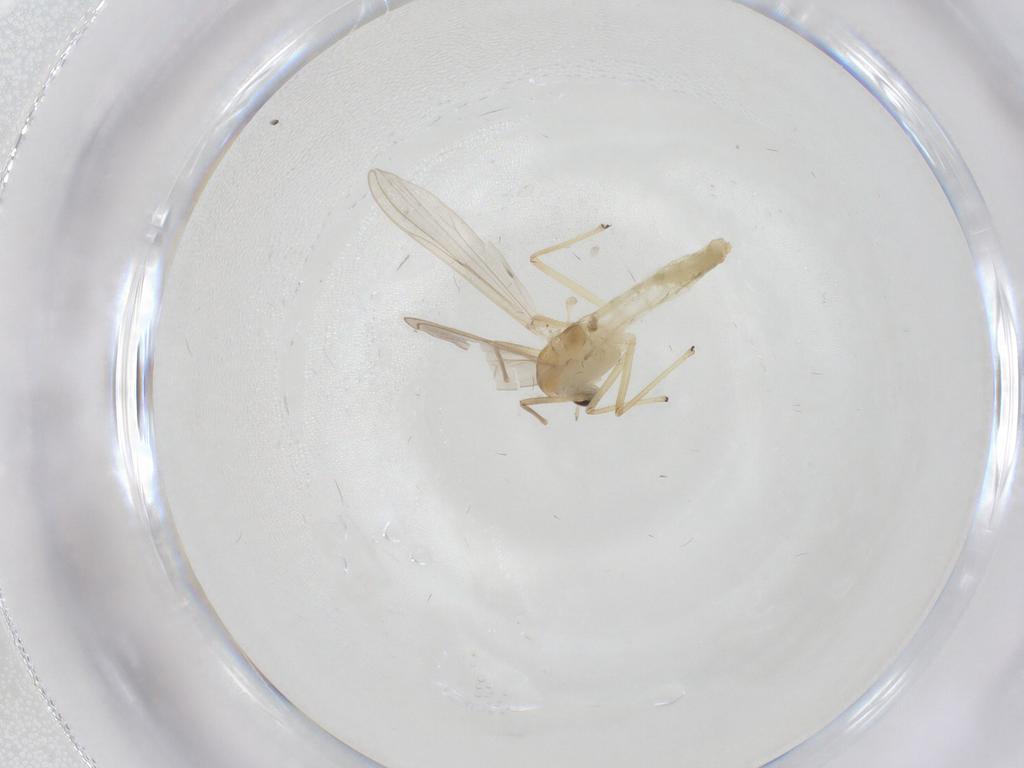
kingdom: Animalia
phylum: Arthropoda
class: Insecta
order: Diptera
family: Chironomidae
